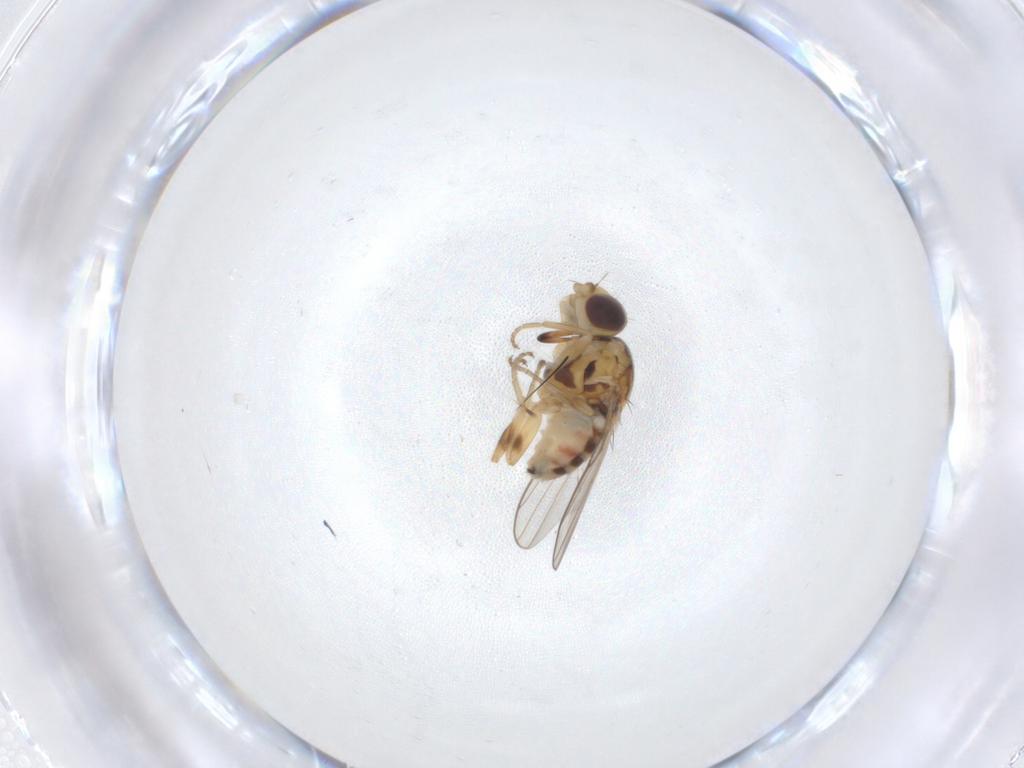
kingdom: Animalia
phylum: Arthropoda
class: Insecta
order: Diptera
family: Chloropidae
